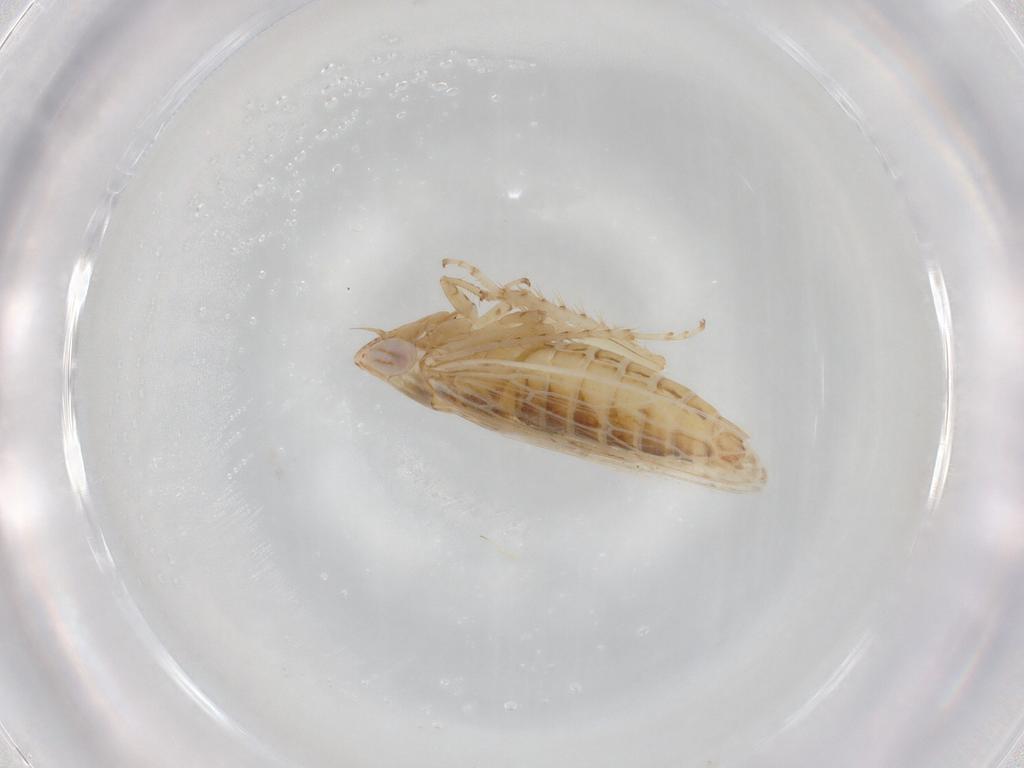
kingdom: Animalia
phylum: Arthropoda
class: Insecta
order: Hemiptera
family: Cicadellidae
